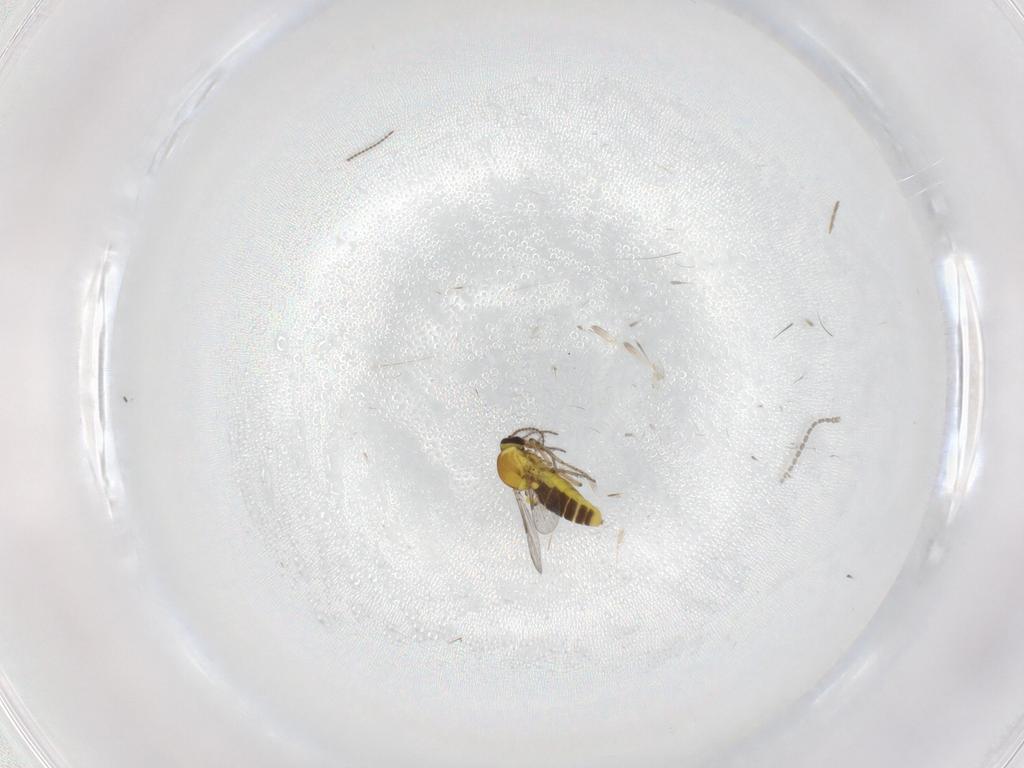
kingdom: Animalia
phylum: Arthropoda
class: Insecta
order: Diptera
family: Ceratopogonidae
